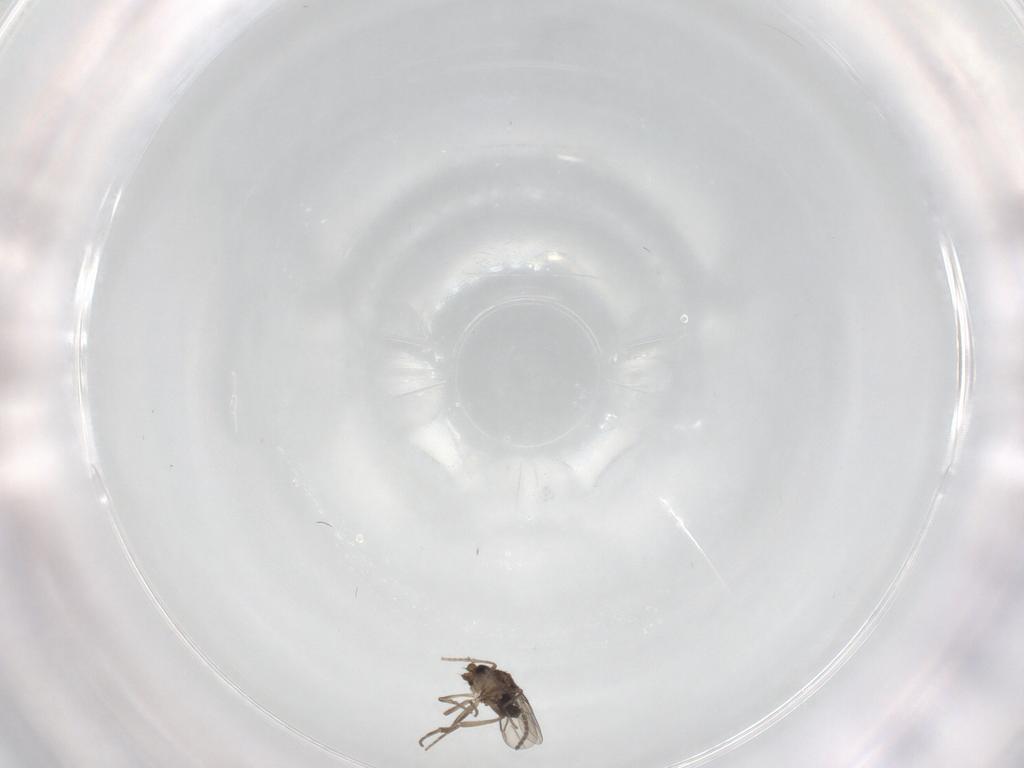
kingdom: Animalia
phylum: Arthropoda
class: Insecta
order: Diptera
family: Sciaridae
